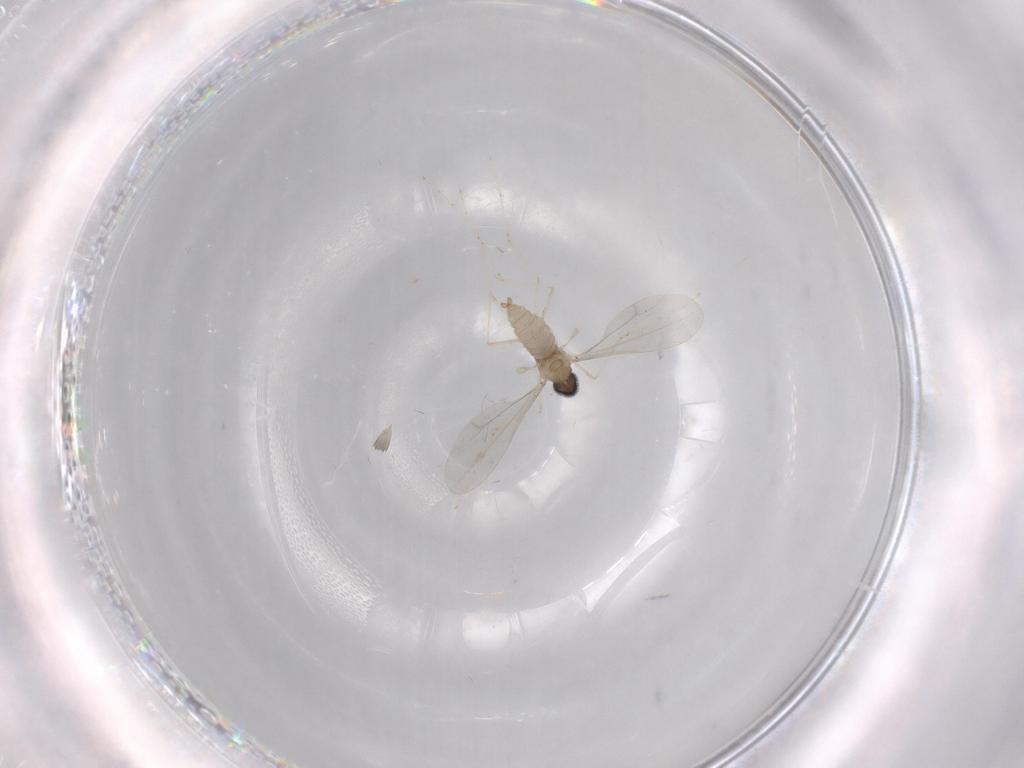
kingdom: Animalia
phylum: Arthropoda
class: Insecta
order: Diptera
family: Cecidomyiidae
